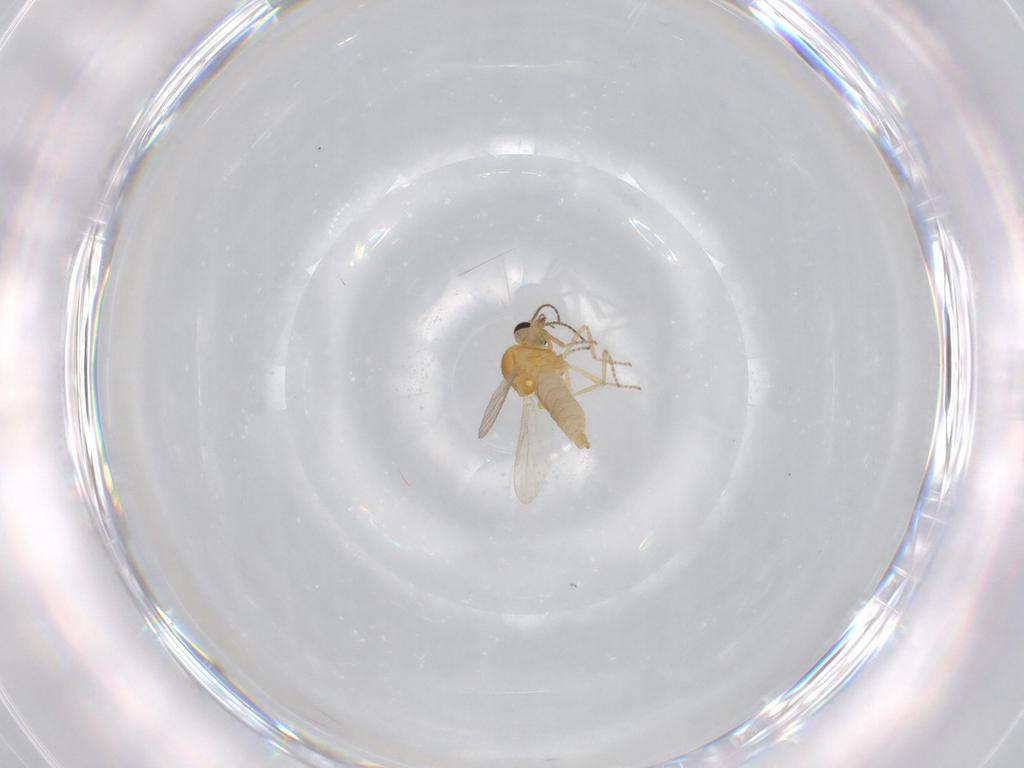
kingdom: Animalia
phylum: Arthropoda
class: Insecta
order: Diptera
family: Ceratopogonidae
